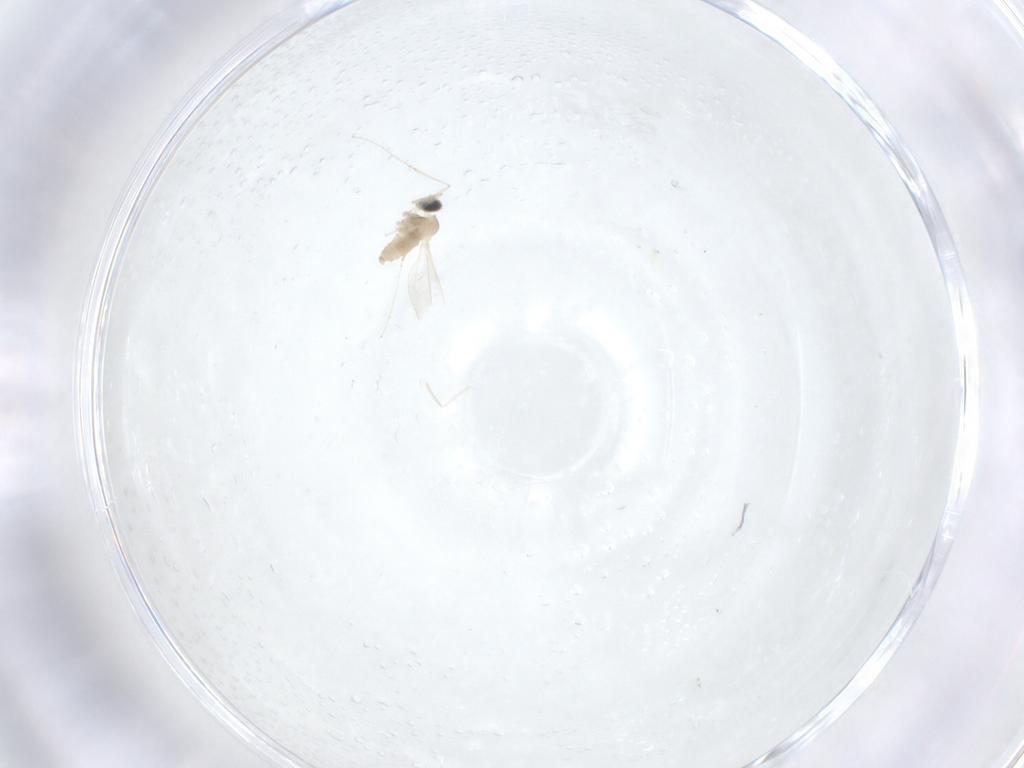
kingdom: Animalia
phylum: Arthropoda
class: Insecta
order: Diptera
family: Cecidomyiidae
